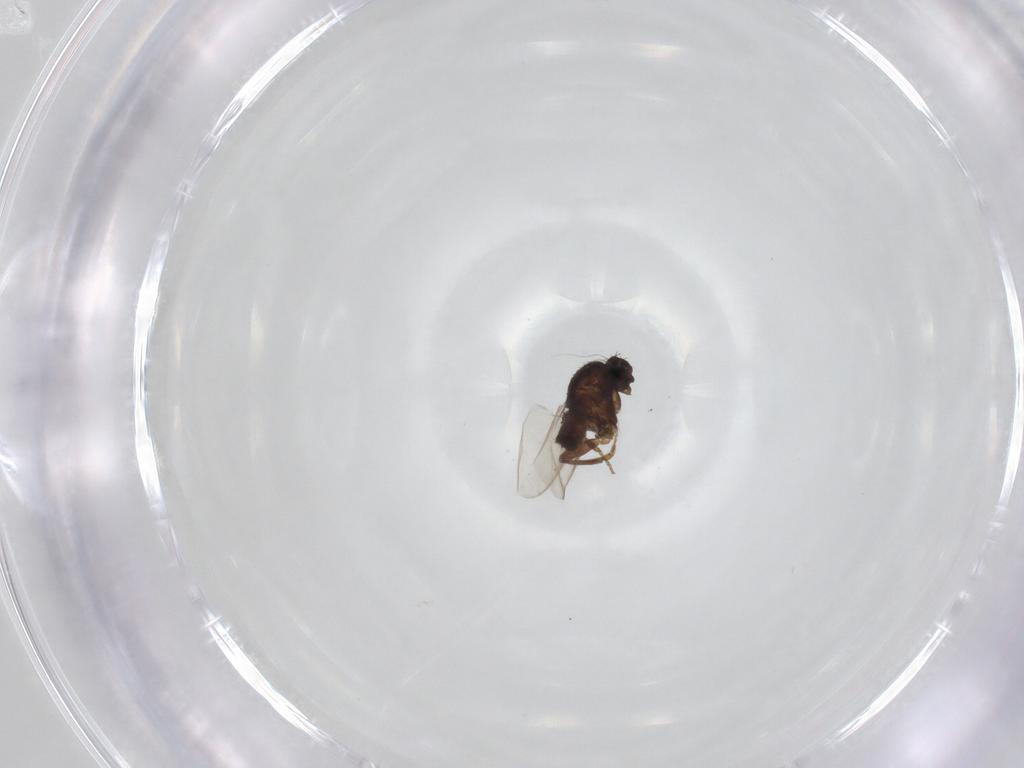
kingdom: Animalia
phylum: Arthropoda
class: Insecta
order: Diptera
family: Sphaeroceridae
